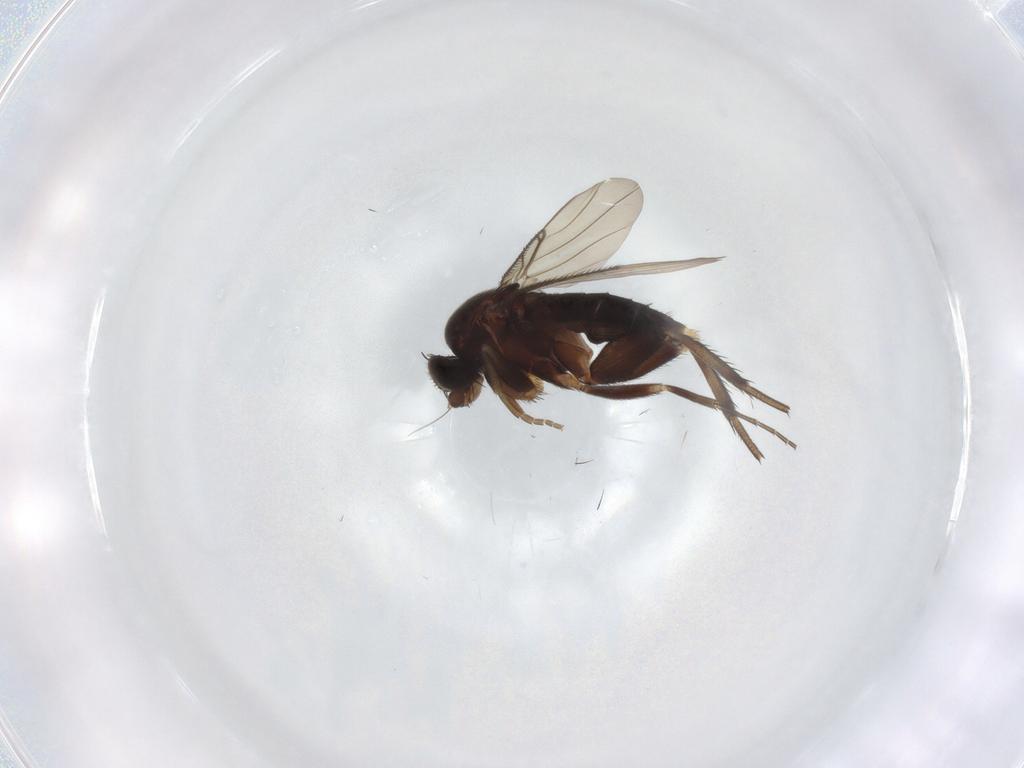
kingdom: Animalia
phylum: Arthropoda
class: Insecta
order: Diptera
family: Phoridae
